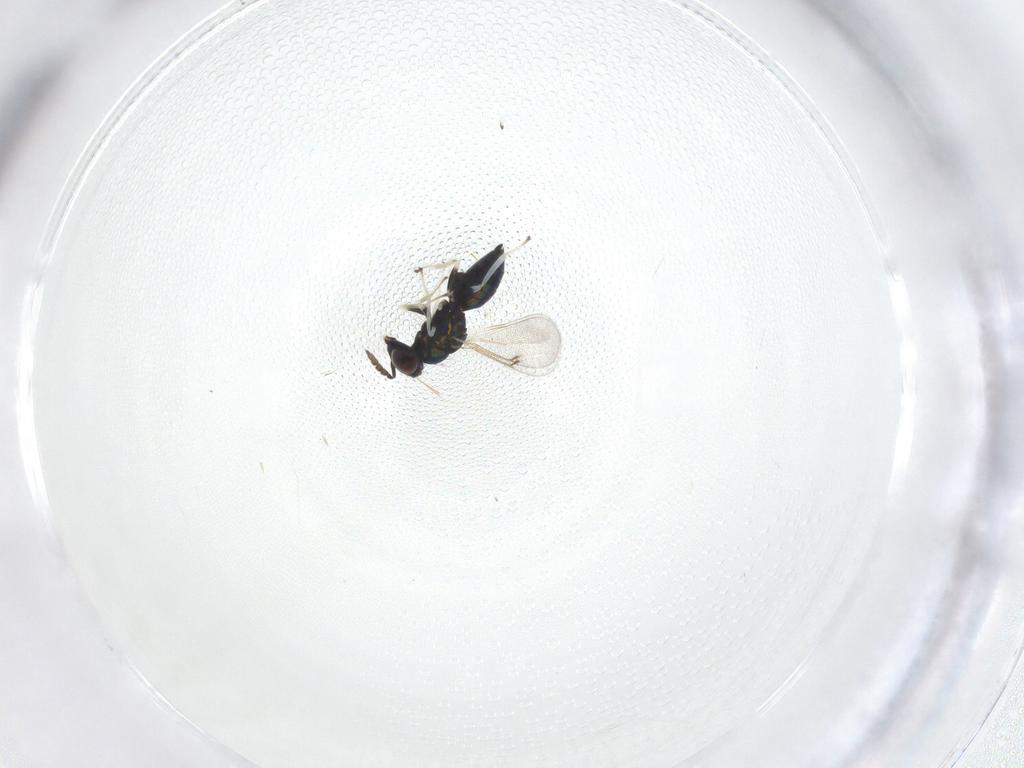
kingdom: Animalia
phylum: Arthropoda
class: Insecta
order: Hymenoptera
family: Eulophidae
